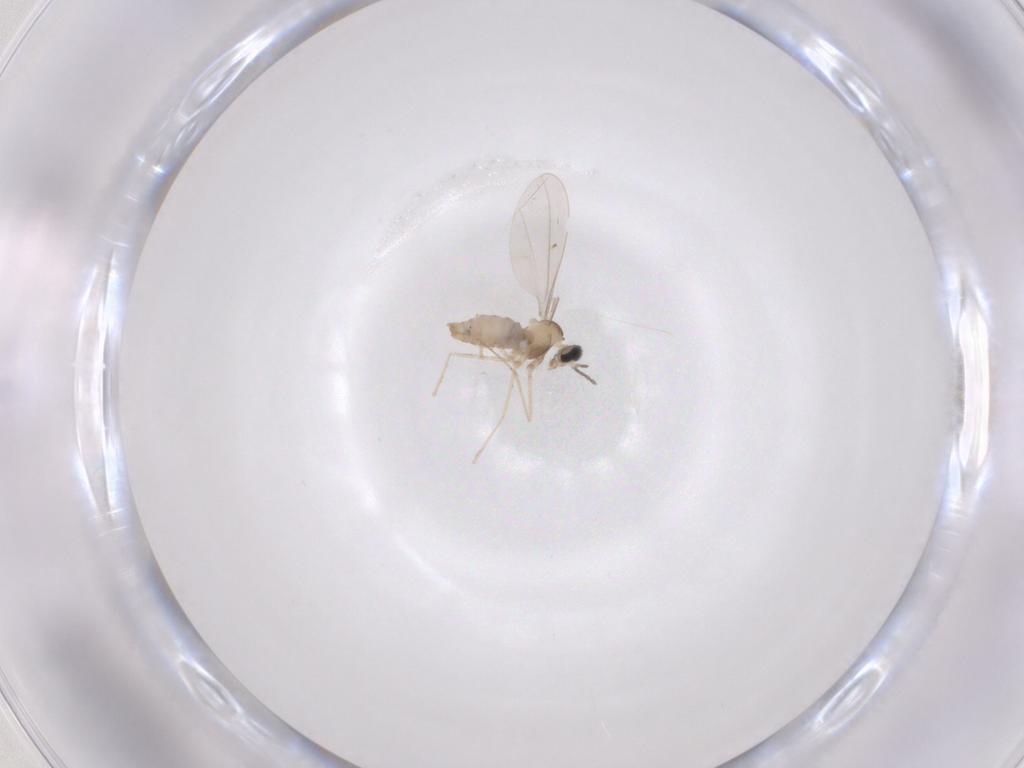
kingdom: Animalia
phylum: Arthropoda
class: Insecta
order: Diptera
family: Cecidomyiidae
